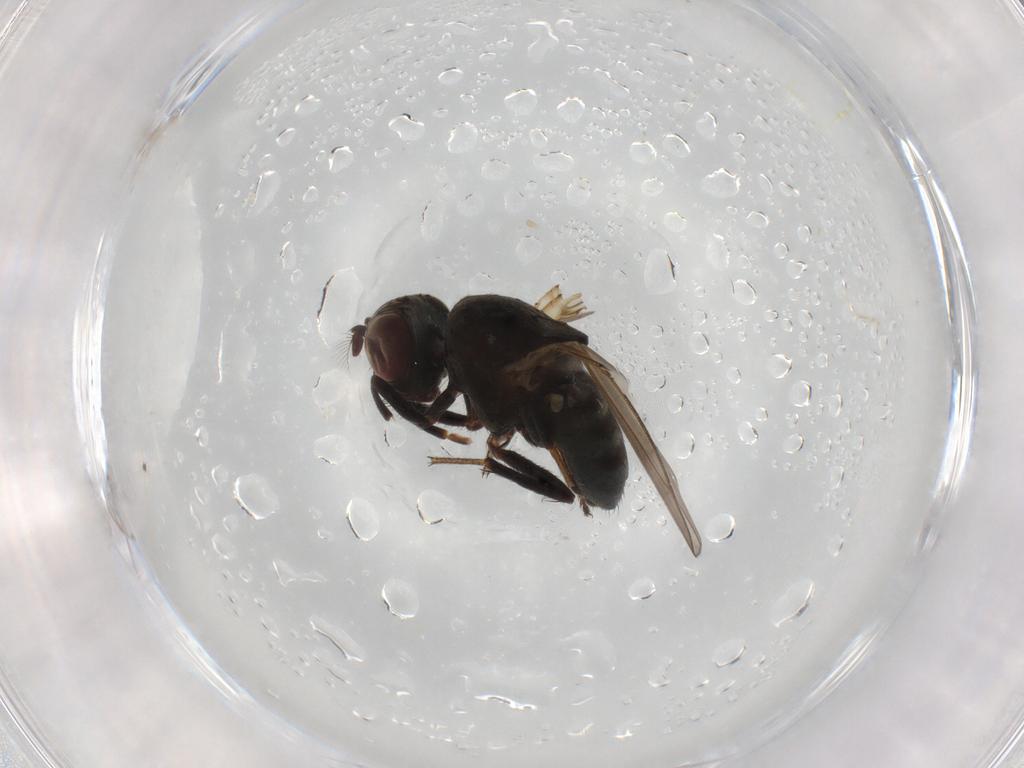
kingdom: Animalia
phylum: Arthropoda
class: Insecta
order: Diptera
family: Ephydridae
